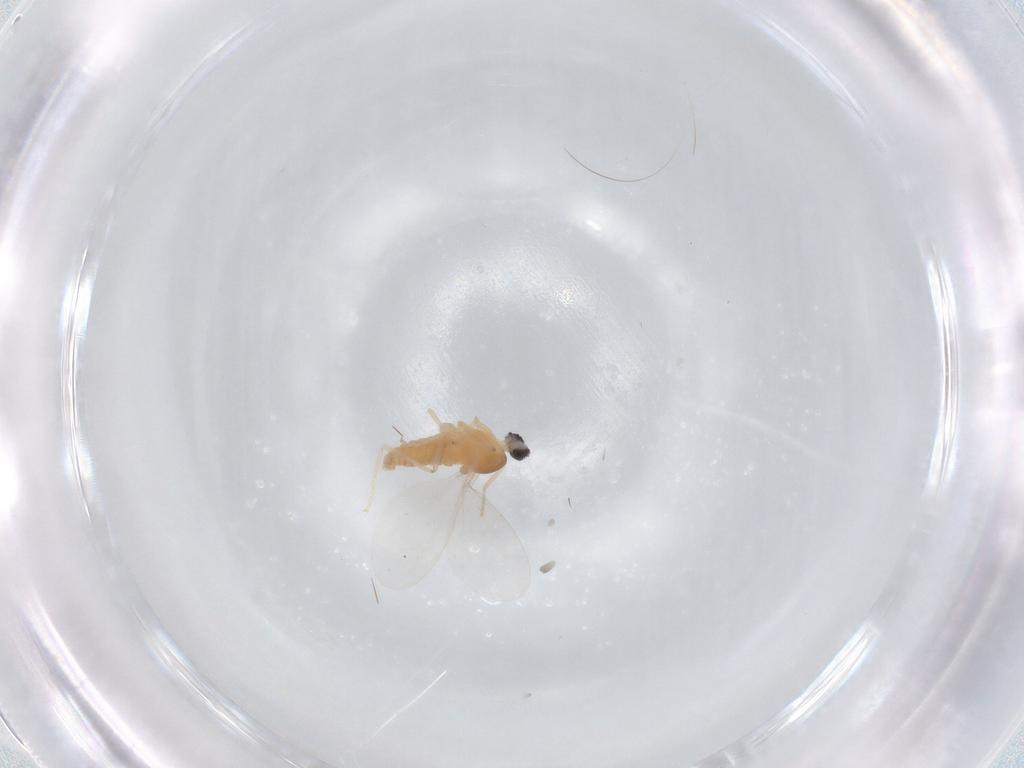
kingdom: Animalia
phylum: Arthropoda
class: Insecta
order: Diptera
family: Cecidomyiidae
